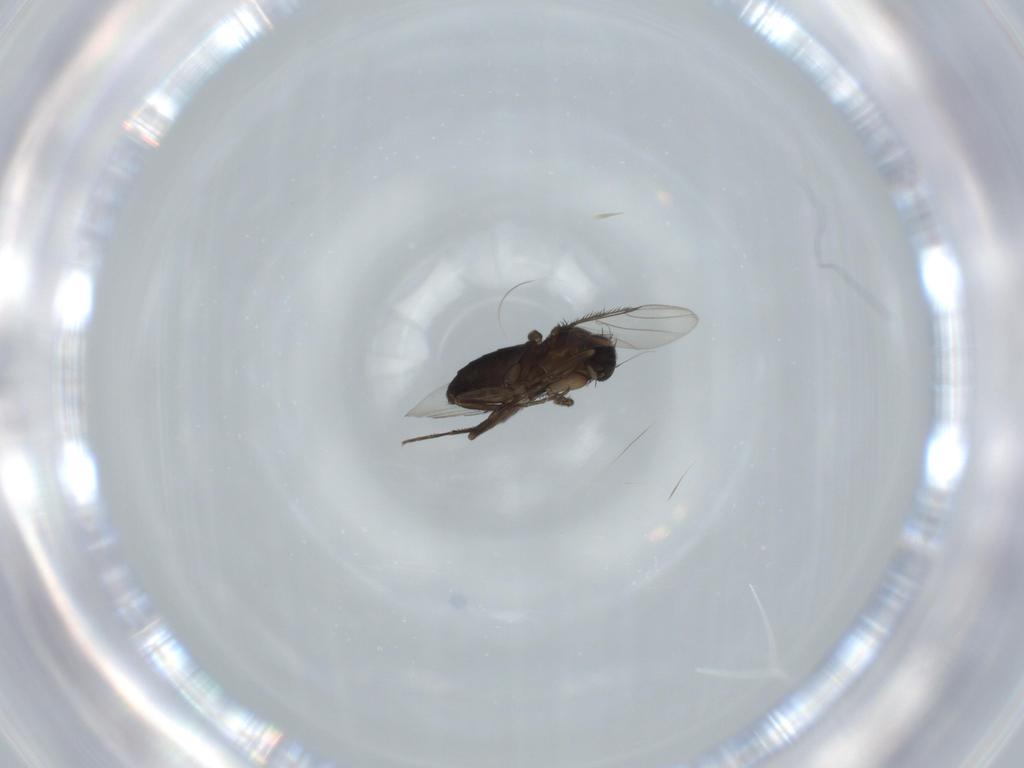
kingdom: Animalia
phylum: Arthropoda
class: Insecta
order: Diptera
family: Phoridae
